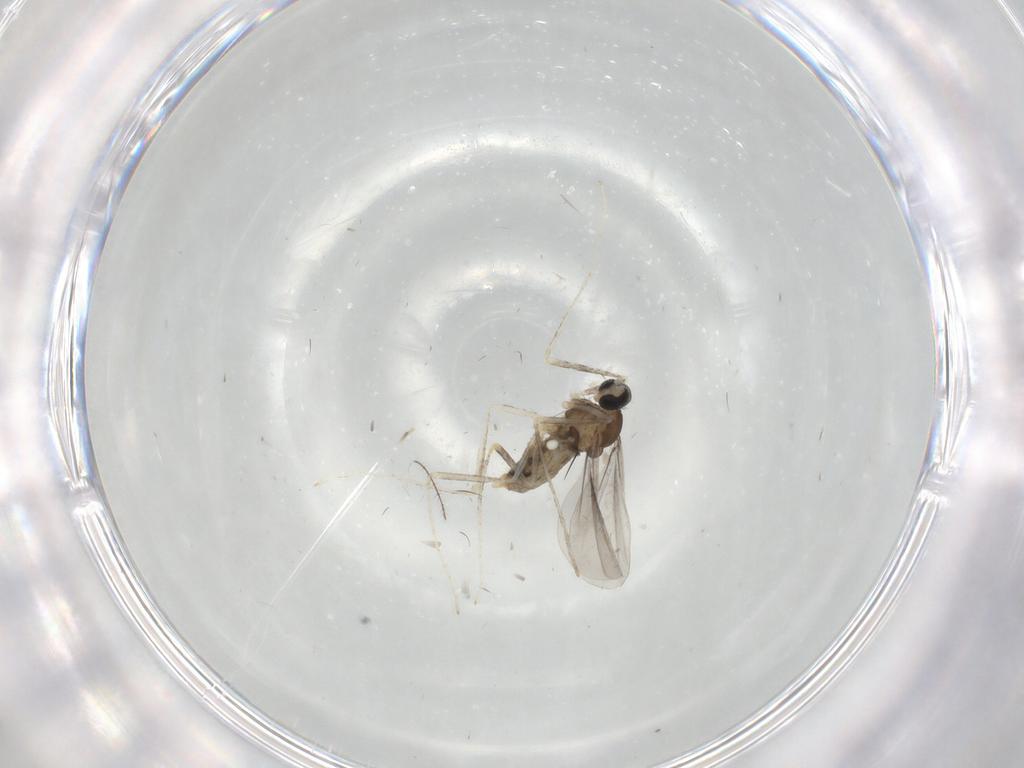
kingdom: Animalia
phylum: Arthropoda
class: Insecta
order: Diptera
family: Cecidomyiidae
